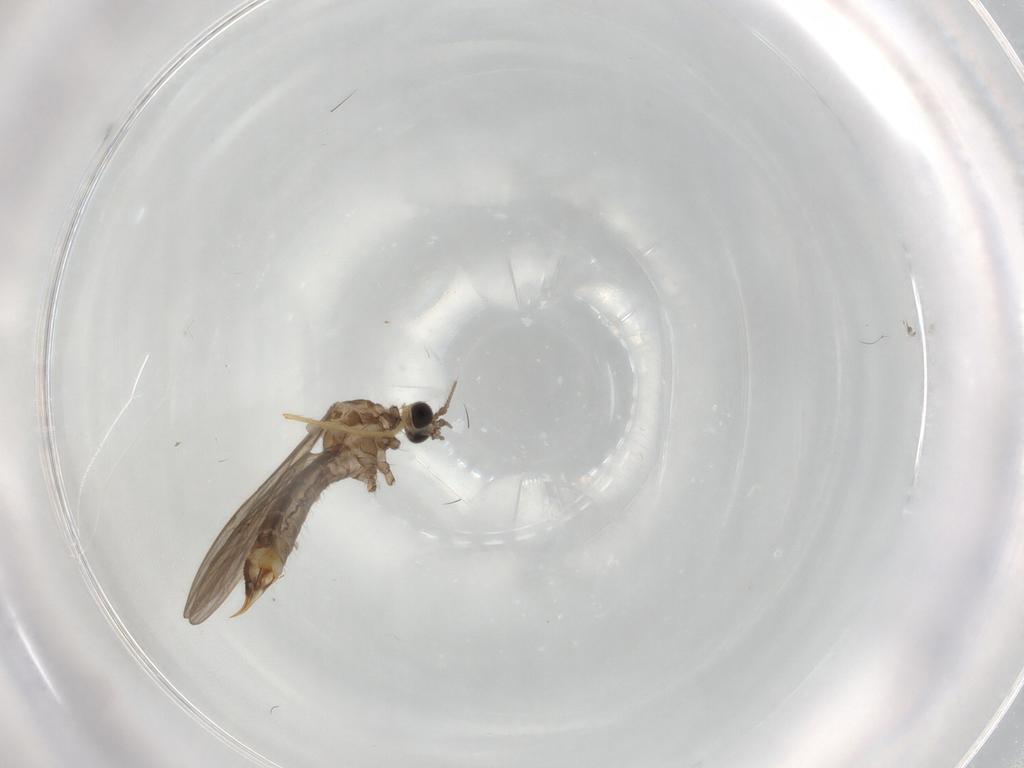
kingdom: Animalia
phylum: Arthropoda
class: Insecta
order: Diptera
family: Limoniidae
